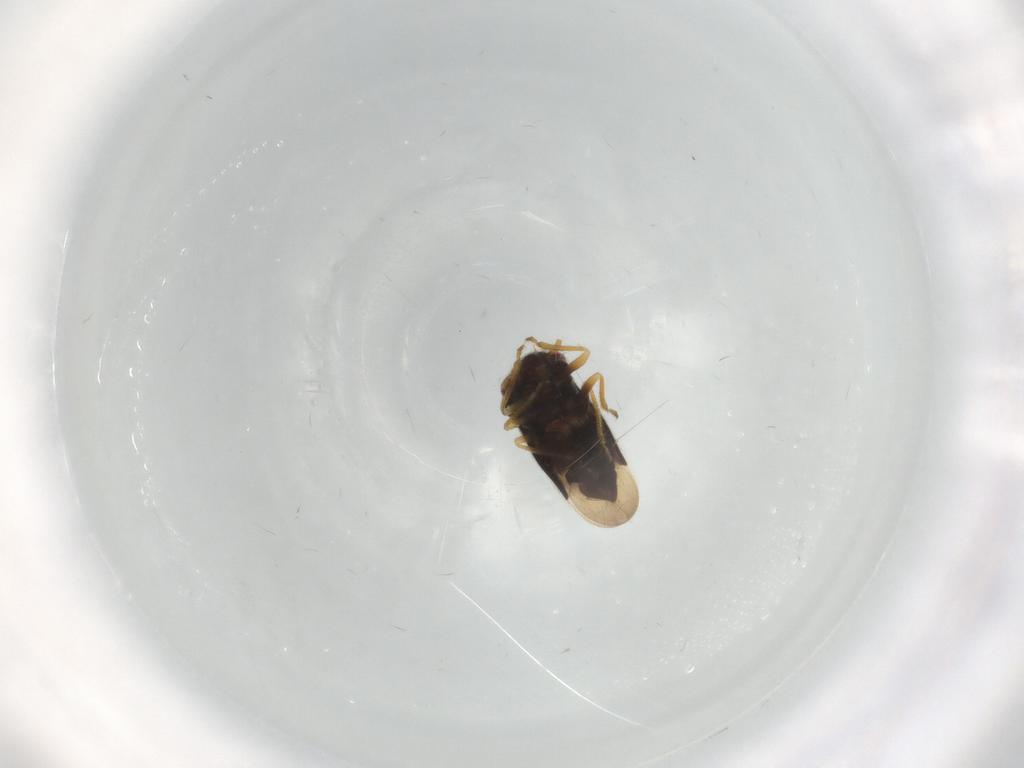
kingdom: Animalia
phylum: Arthropoda
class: Insecta
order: Hemiptera
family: Schizopteridae
